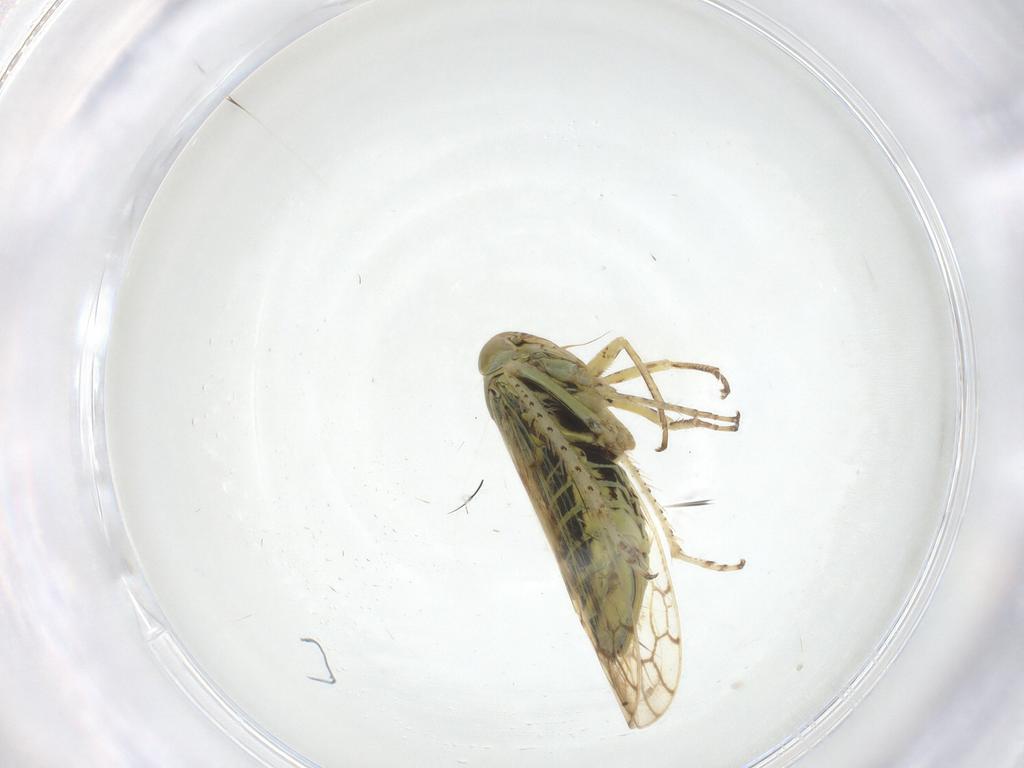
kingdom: Animalia
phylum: Arthropoda
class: Insecta
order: Hemiptera
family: Cicadellidae
